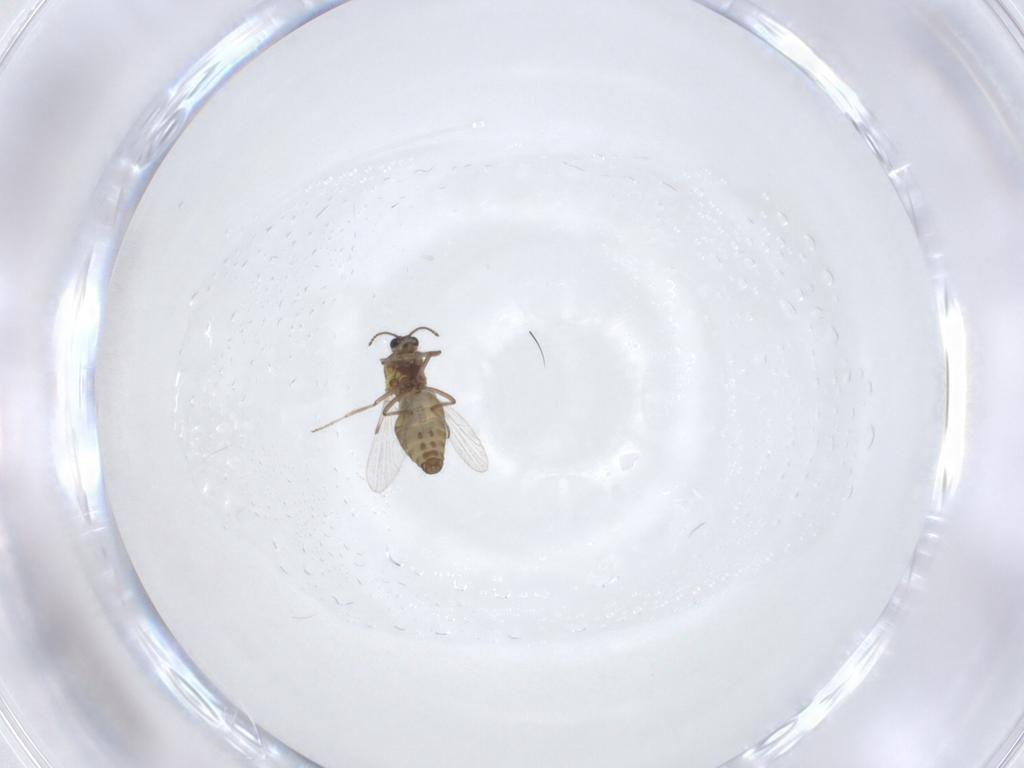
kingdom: Animalia
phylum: Arthropoda
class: Insecta
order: Diptera
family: Ceratopogonidae
